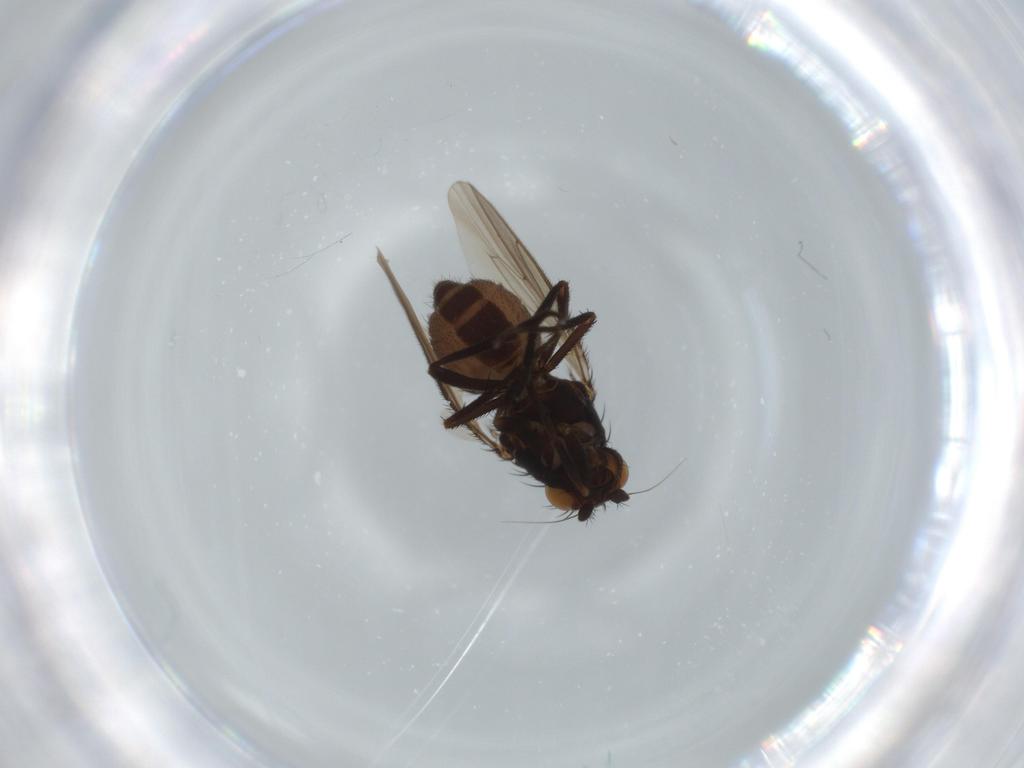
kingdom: Animalia
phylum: Arthropoda
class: Insecta
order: Diptera
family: Sphaeroceridae
